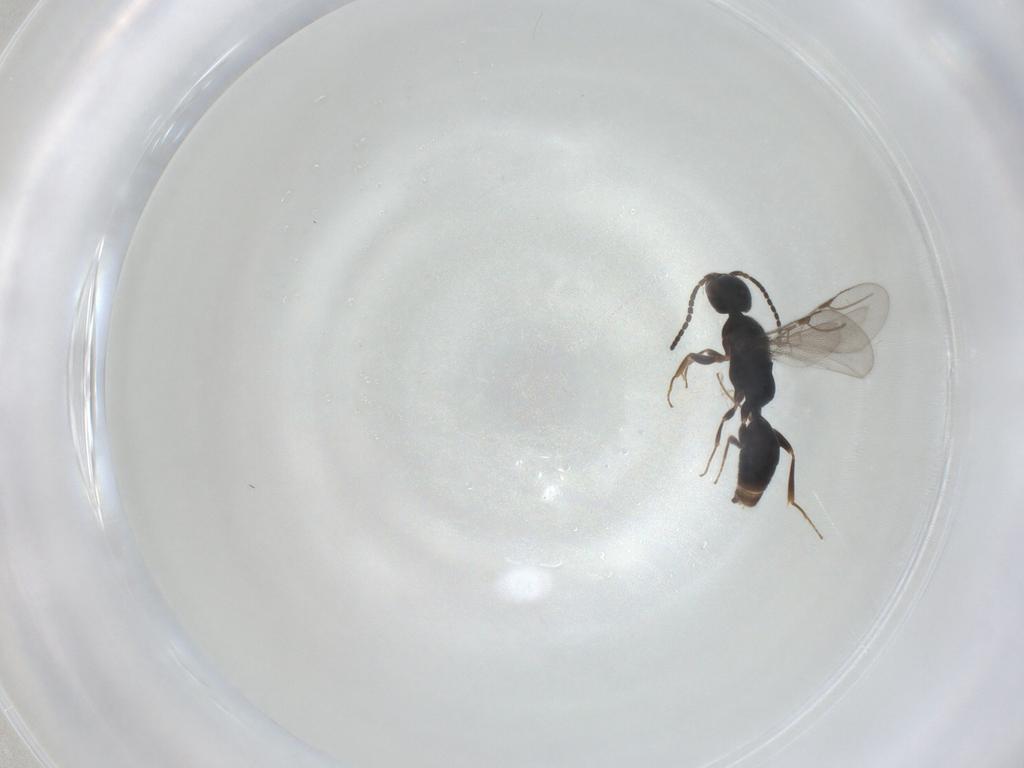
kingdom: Animalia
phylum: Arthropoda
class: Insecta
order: Hymenoptera
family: Bethylidae
